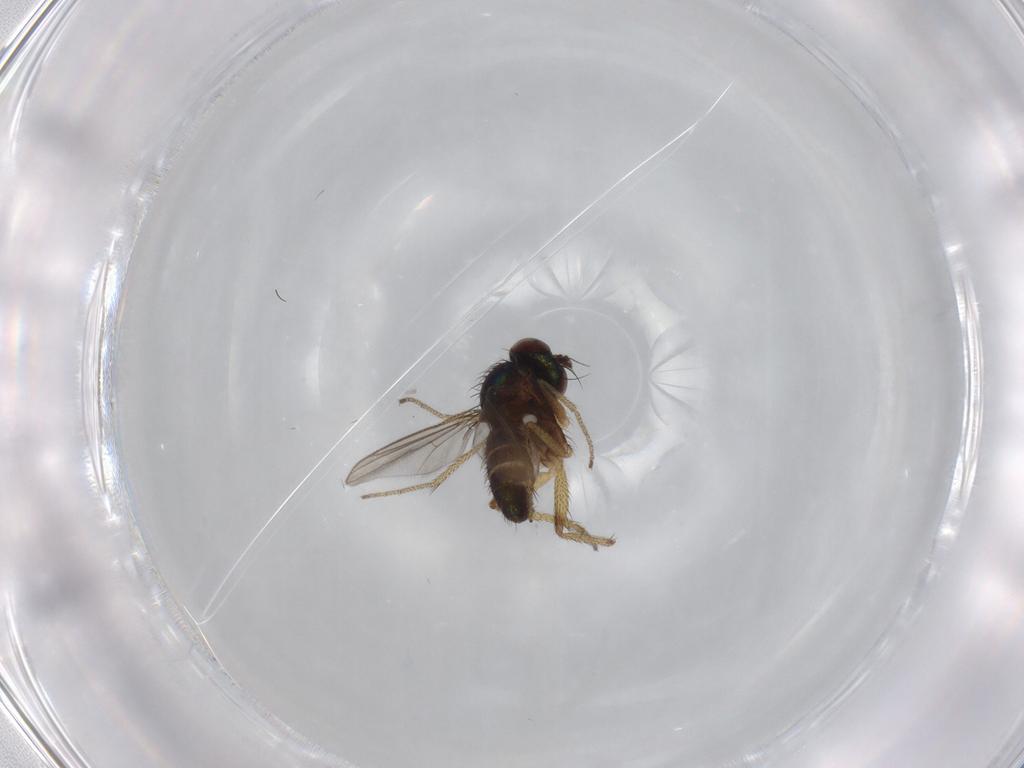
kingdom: Animalia
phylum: Arthropoda
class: Insecta
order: Diptera
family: Dolichopodidae
